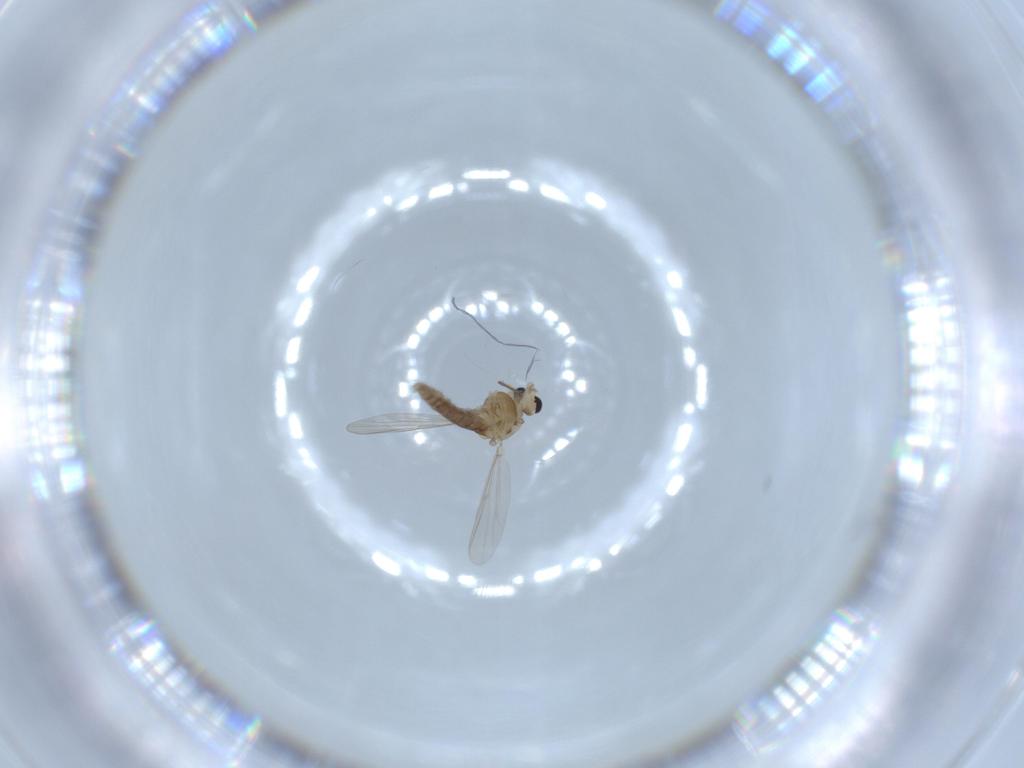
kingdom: Animalia
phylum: Arthropoda
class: Insecta
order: Diptera
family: Chironomidae
